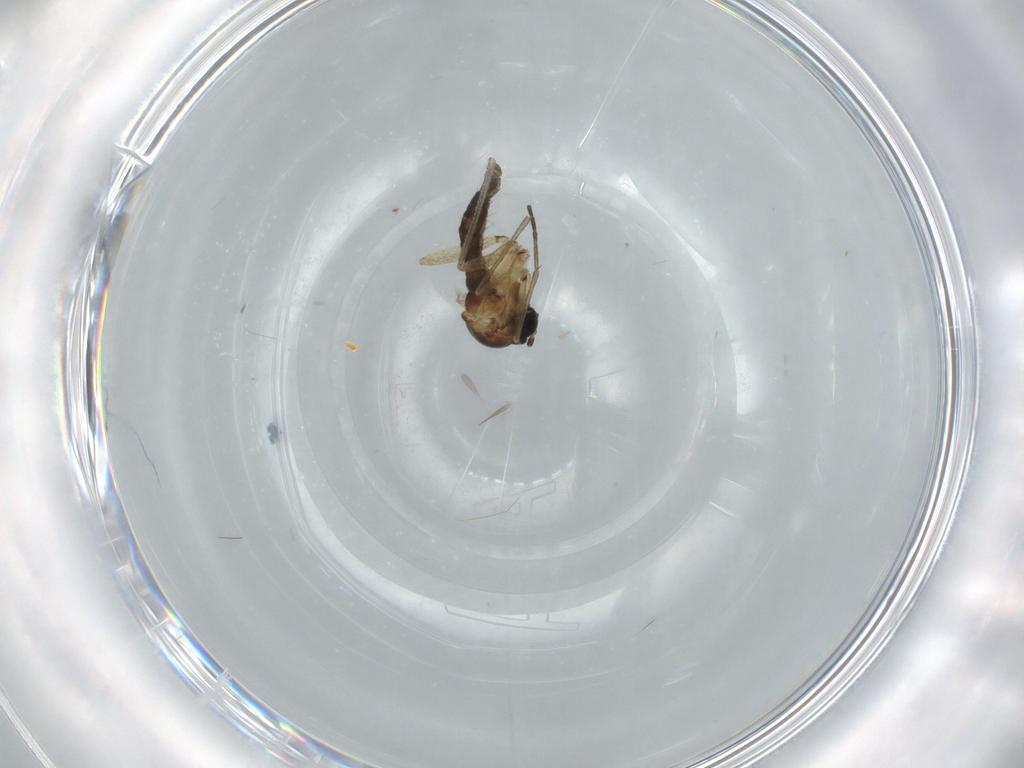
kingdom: Animalia
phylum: Arthropoda
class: Insecta
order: Diptera
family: Sciaridae
